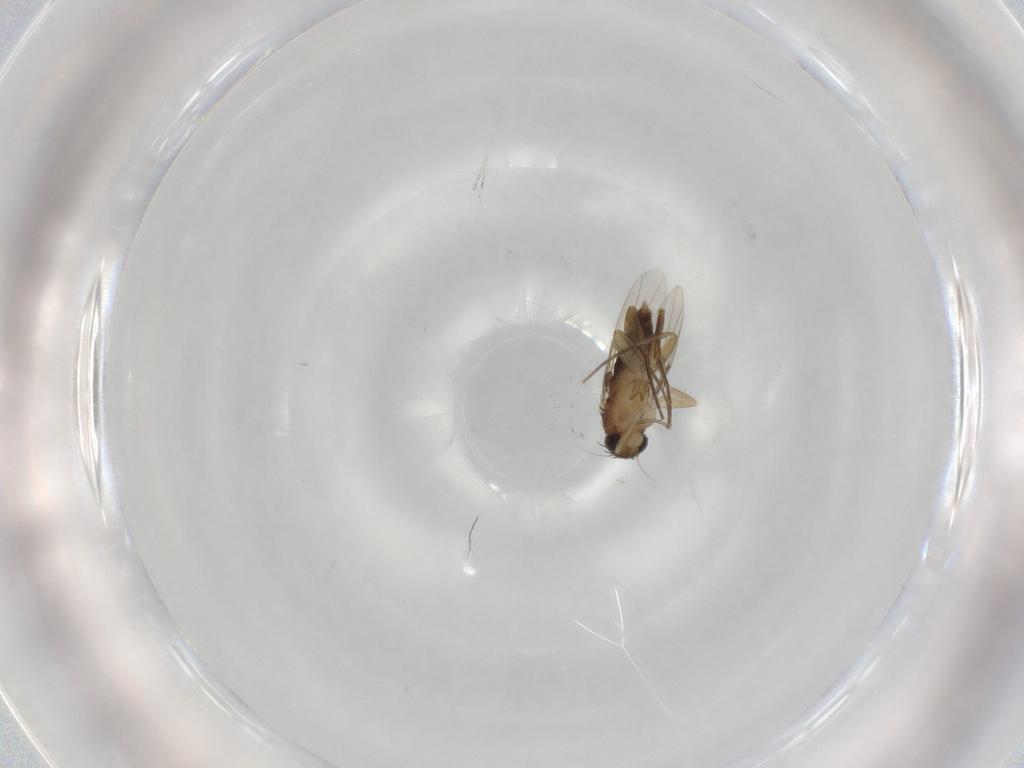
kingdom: Animalia
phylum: Arthropoda
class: Insecta
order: Diptera
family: Phoridae
